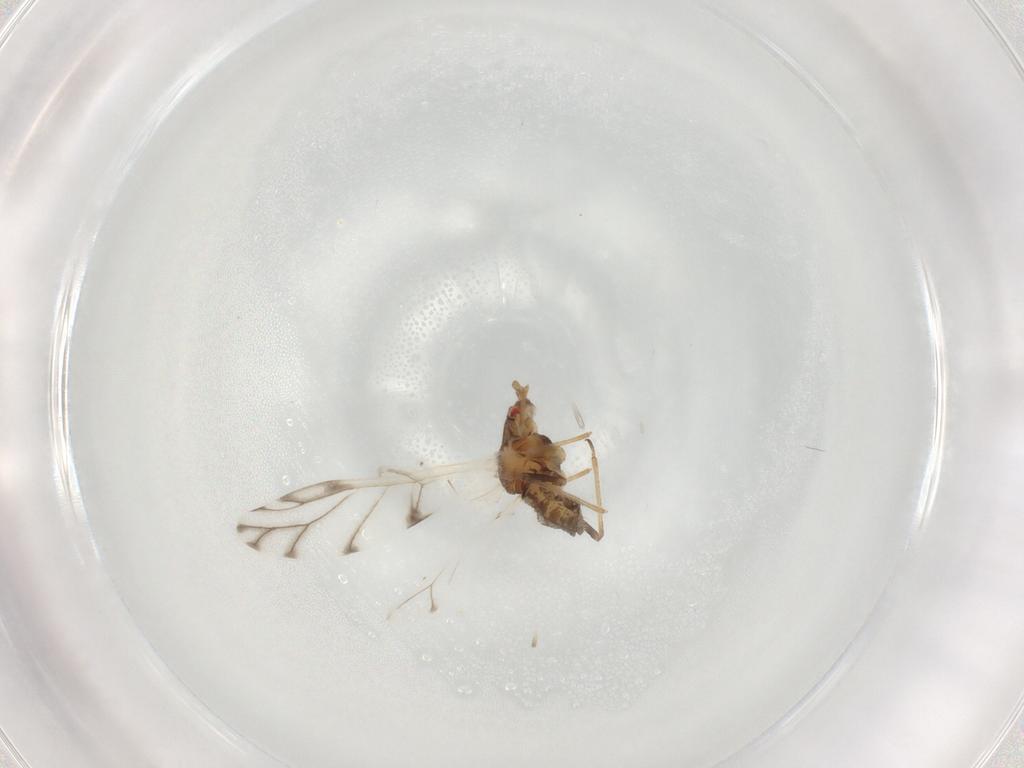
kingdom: Animalia
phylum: Arthropoda
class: Insecta
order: Hemiptera
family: Aphididae
